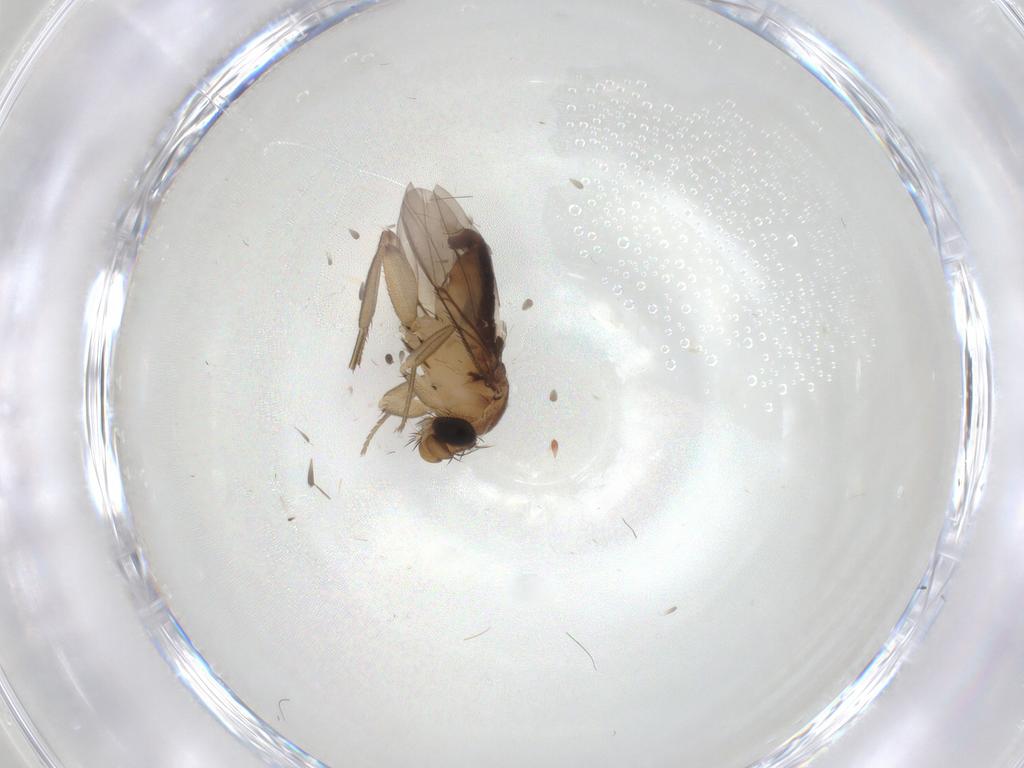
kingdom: Animalia
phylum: Arthropoda
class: Insecta
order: Diptera
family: Phoridae
